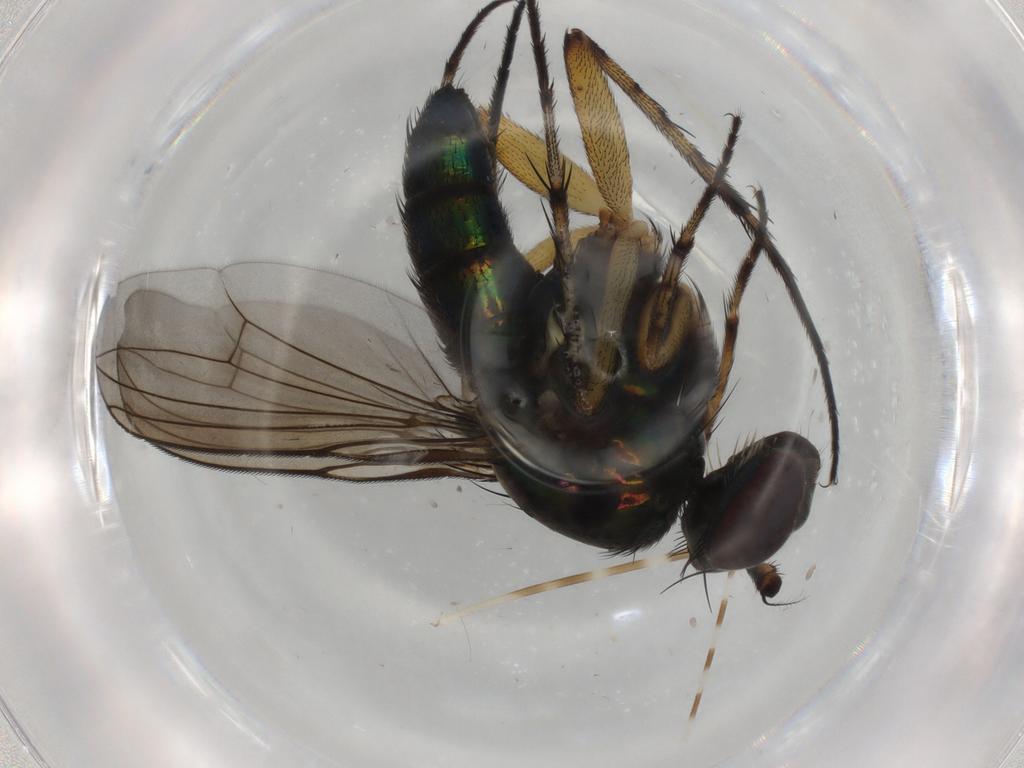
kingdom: Animalia
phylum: Arthropoda
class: Insecta
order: Diptera
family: Dolichopodidae
